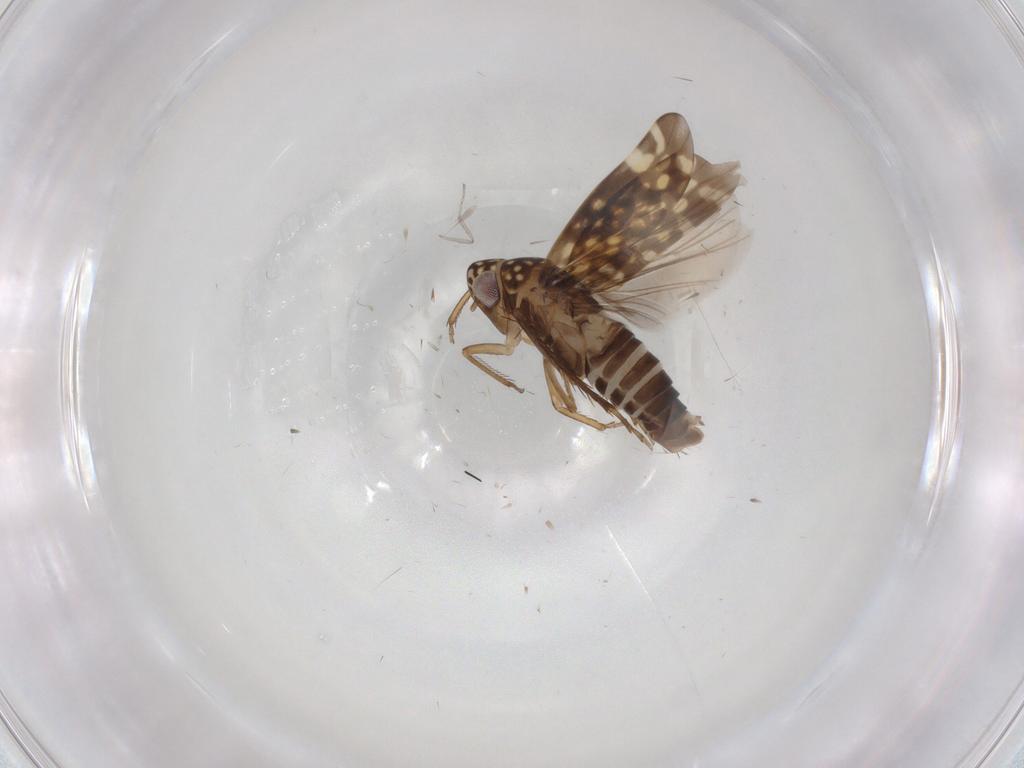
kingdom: Animalia
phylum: Arthropoda
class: Insecta
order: Hemiptera
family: Cicadellidae
